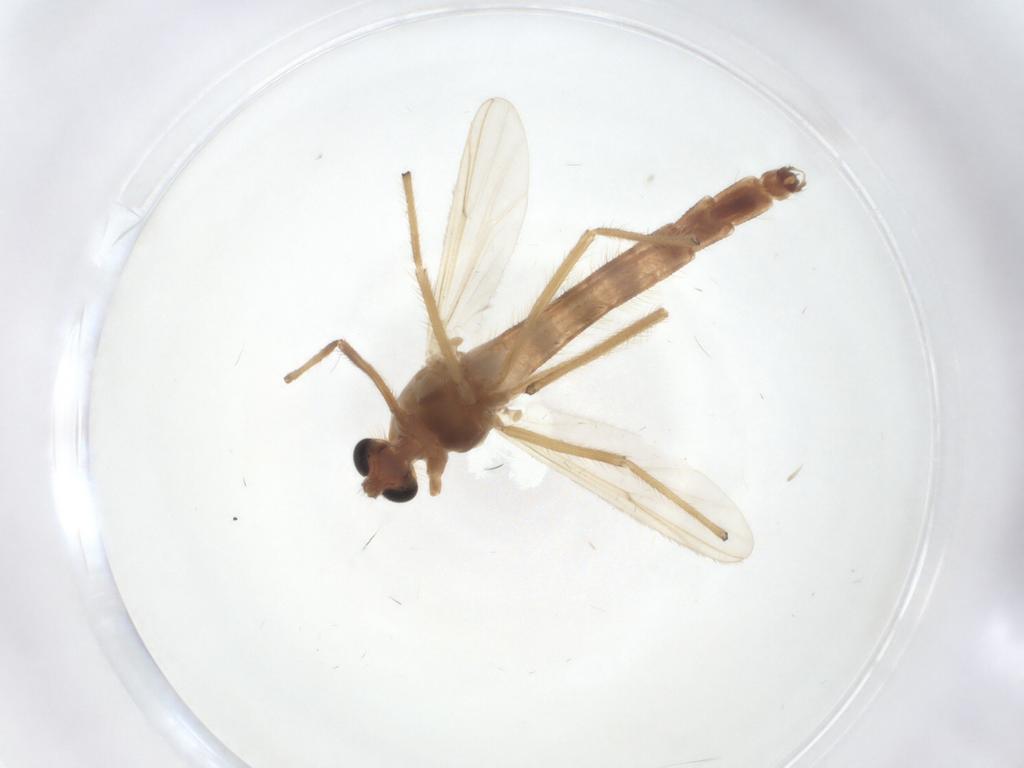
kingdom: Animalia
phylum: Arthropoda
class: Insecta
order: Diptera
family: Chironomidae
